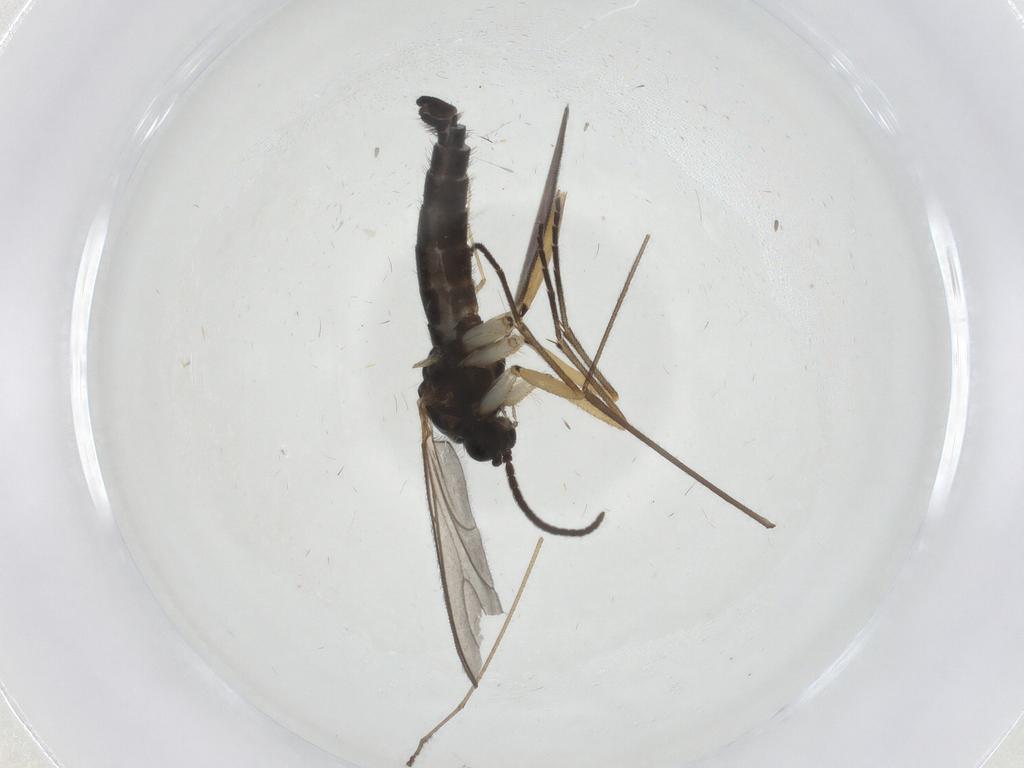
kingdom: Animalia
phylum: Arthropoda
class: Insecta
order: Diptera
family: Sciaridae
